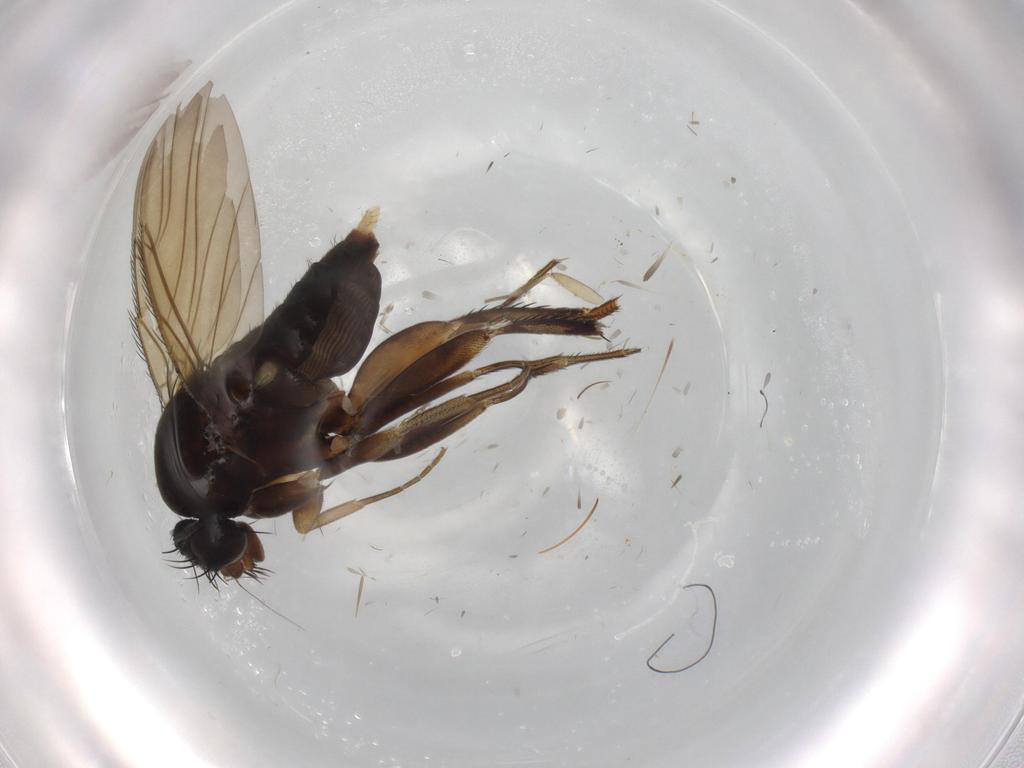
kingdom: Animalia
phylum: Arthropoda
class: Insecta
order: Diptera
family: Phoridae
